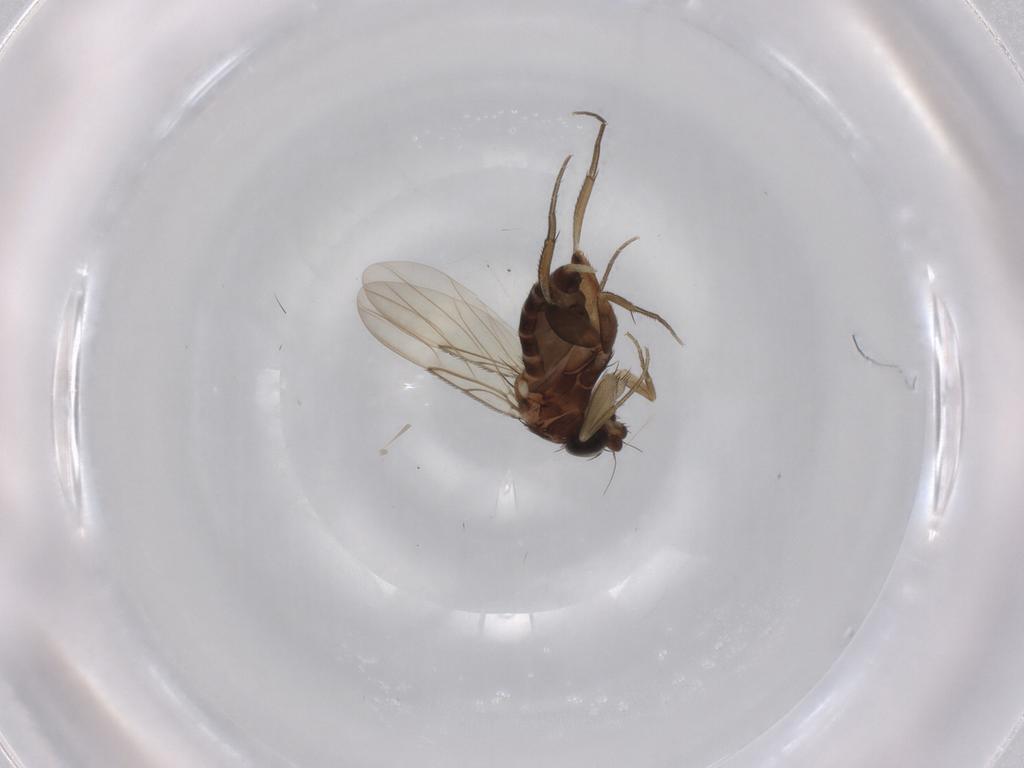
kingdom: Animalia
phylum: Arthropoda
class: Insecta
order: Diptera
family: Phoridae
